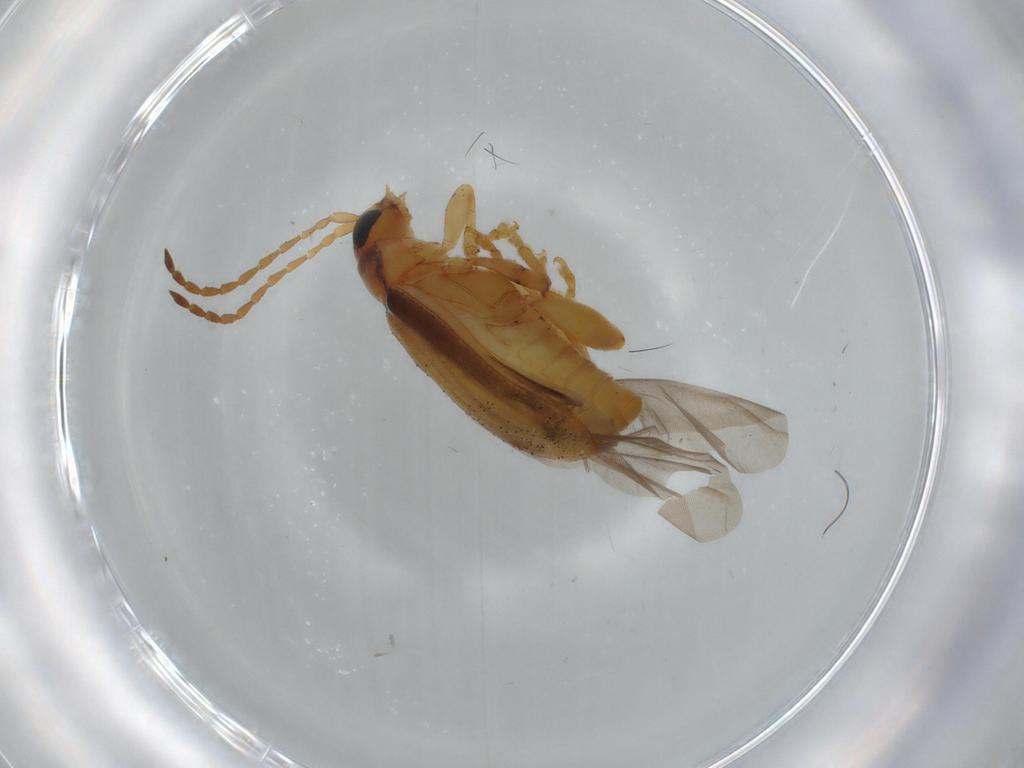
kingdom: Animalia
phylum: Arthropoda
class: Insecta
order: Coleoptera
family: Chrysomelidae
